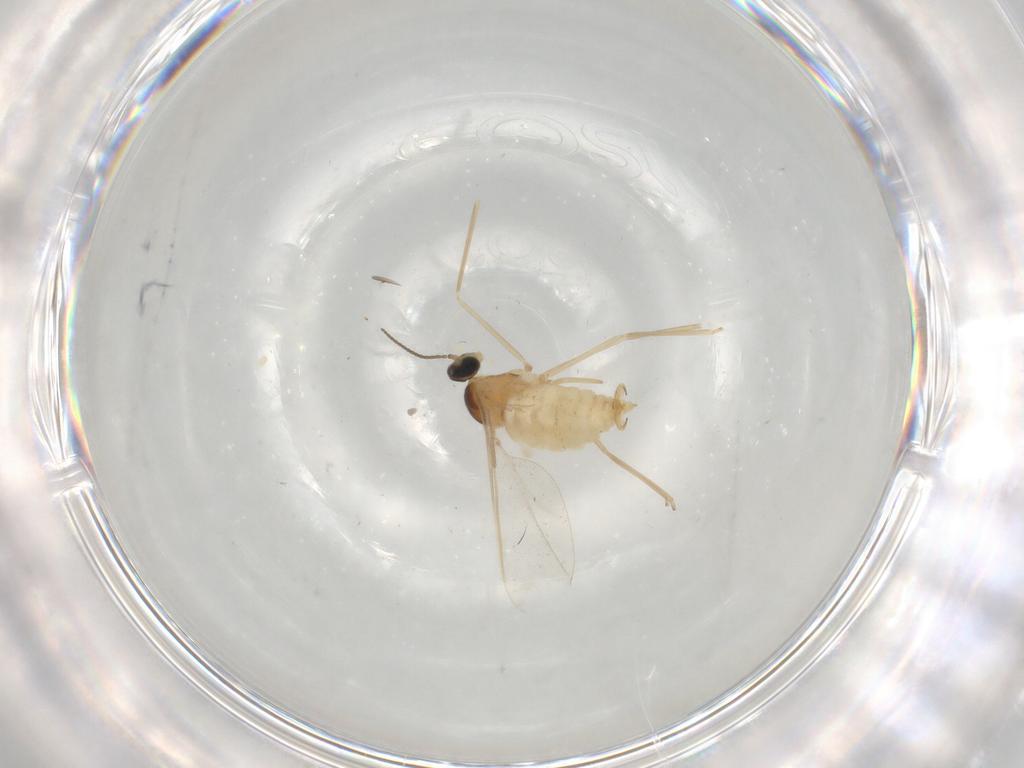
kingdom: Animalia
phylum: Arthropoda
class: Insecta
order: Diptera
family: Cecidomyiidae
